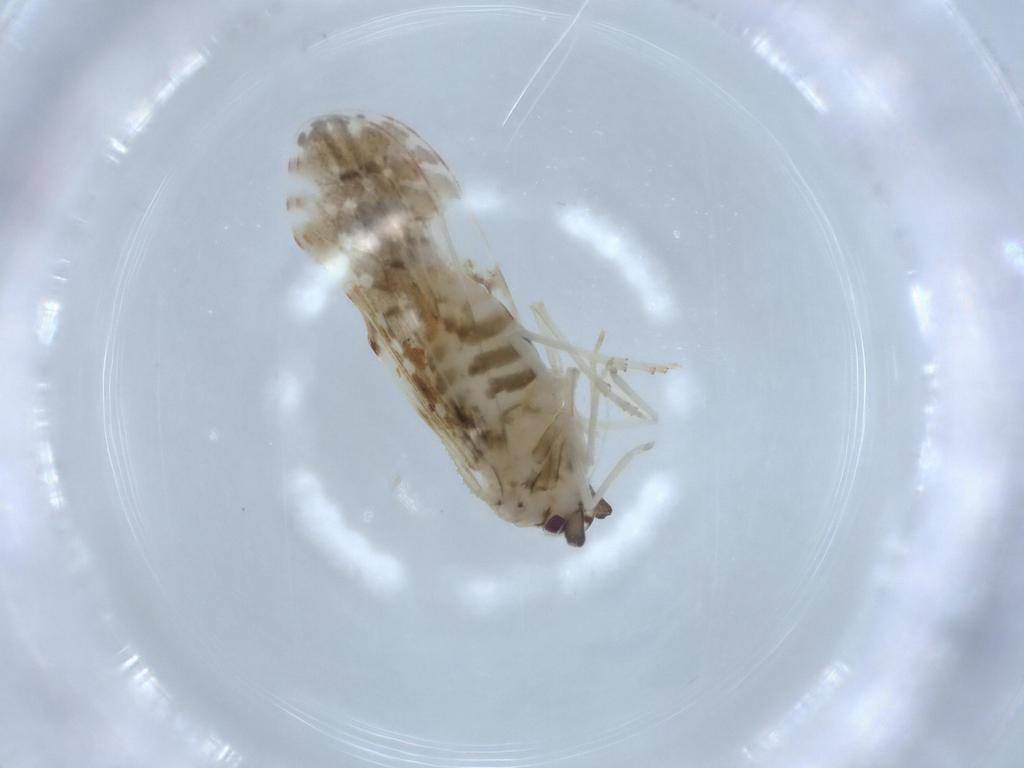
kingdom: Animalia
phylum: Arthropoda
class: Insecta
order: Hemiptera
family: Derbidae
